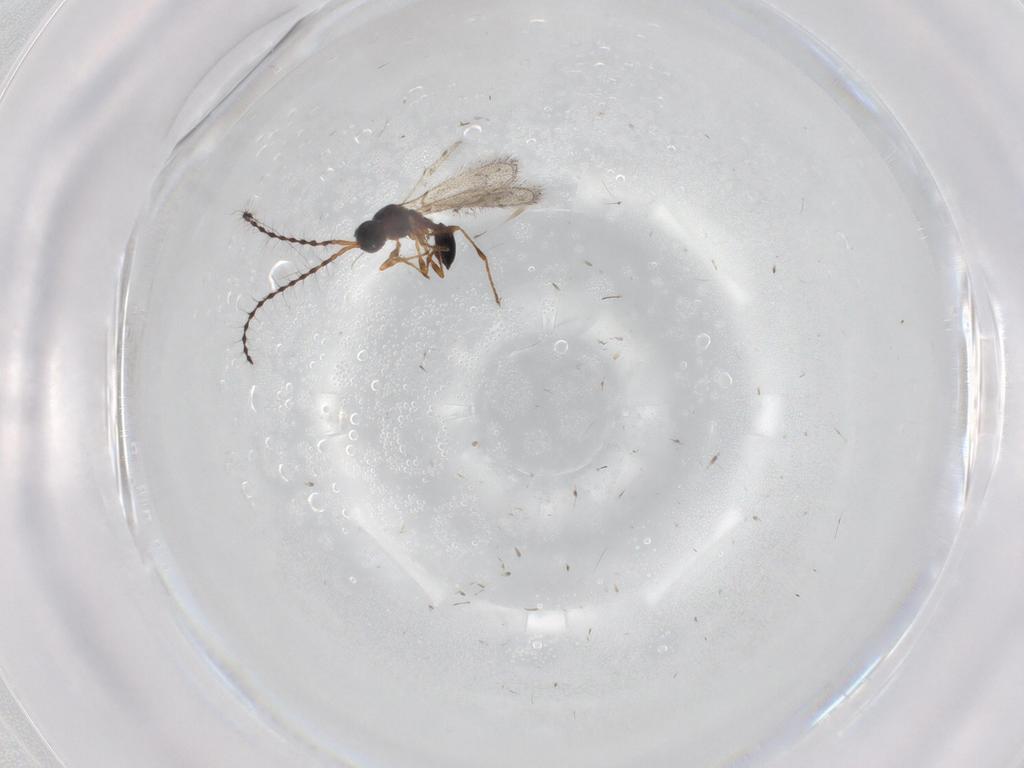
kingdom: Animalia
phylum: Arthropoda
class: Insecta
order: Hymenoptera
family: Diapriidae
